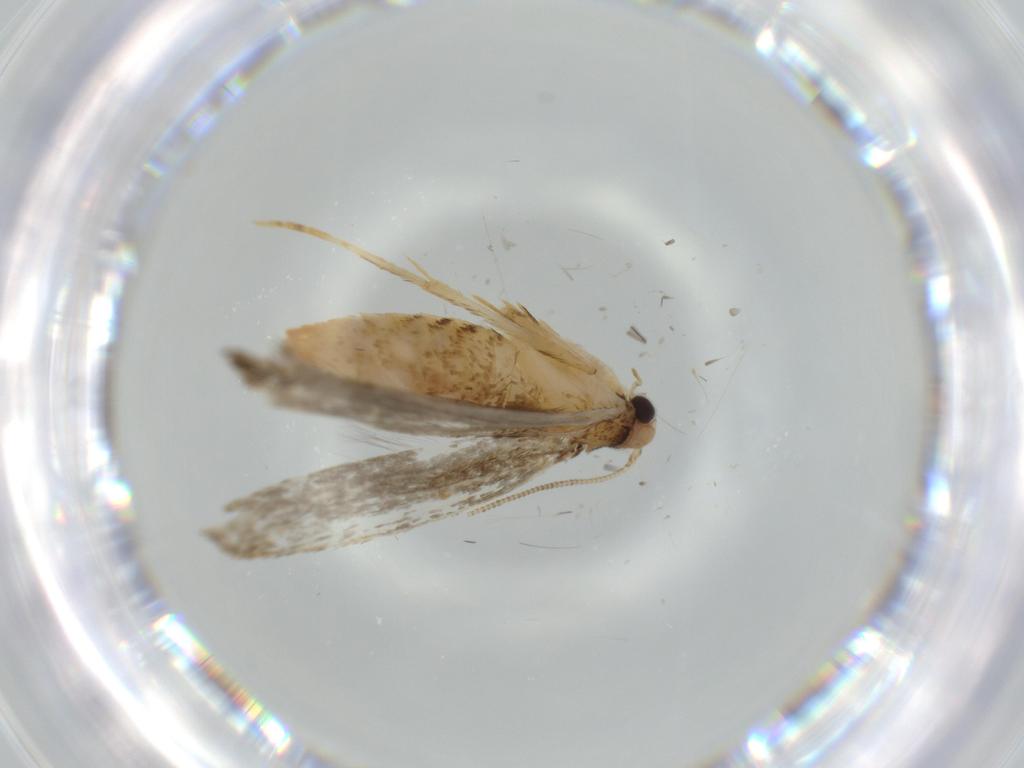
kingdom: Animalia
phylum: Arthropoda
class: Insecta
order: Lepidoptera
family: Tineidae
